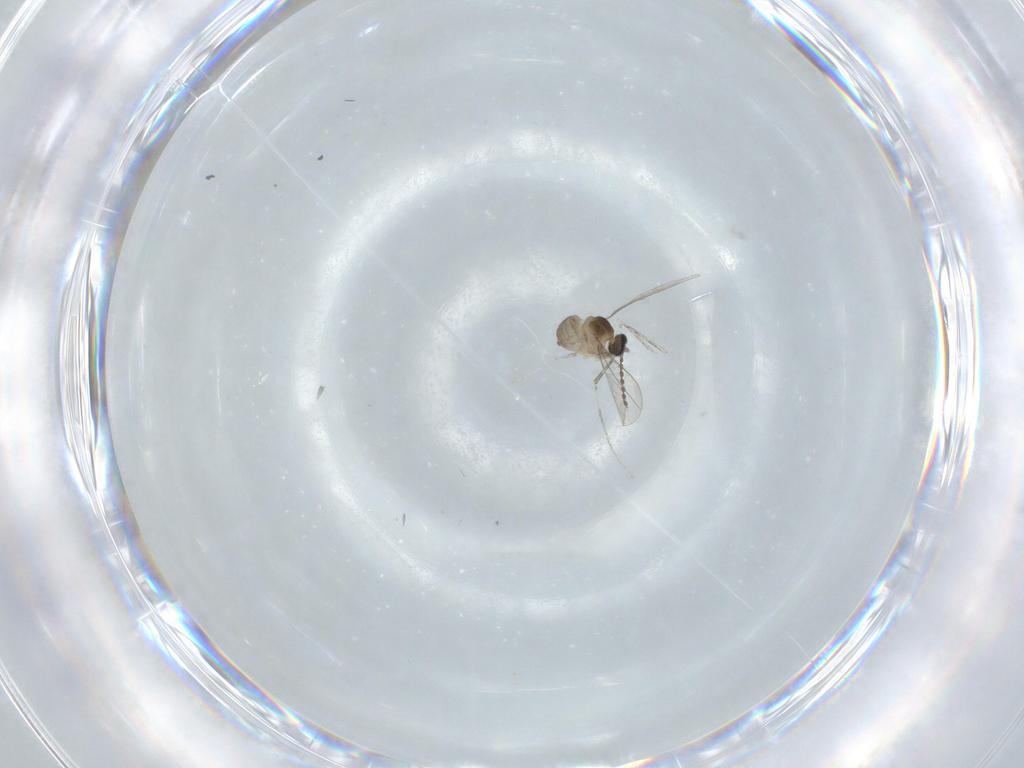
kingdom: Animalia
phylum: Arthropoda
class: Insecta
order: Diptera
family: Cecidomyiidae
